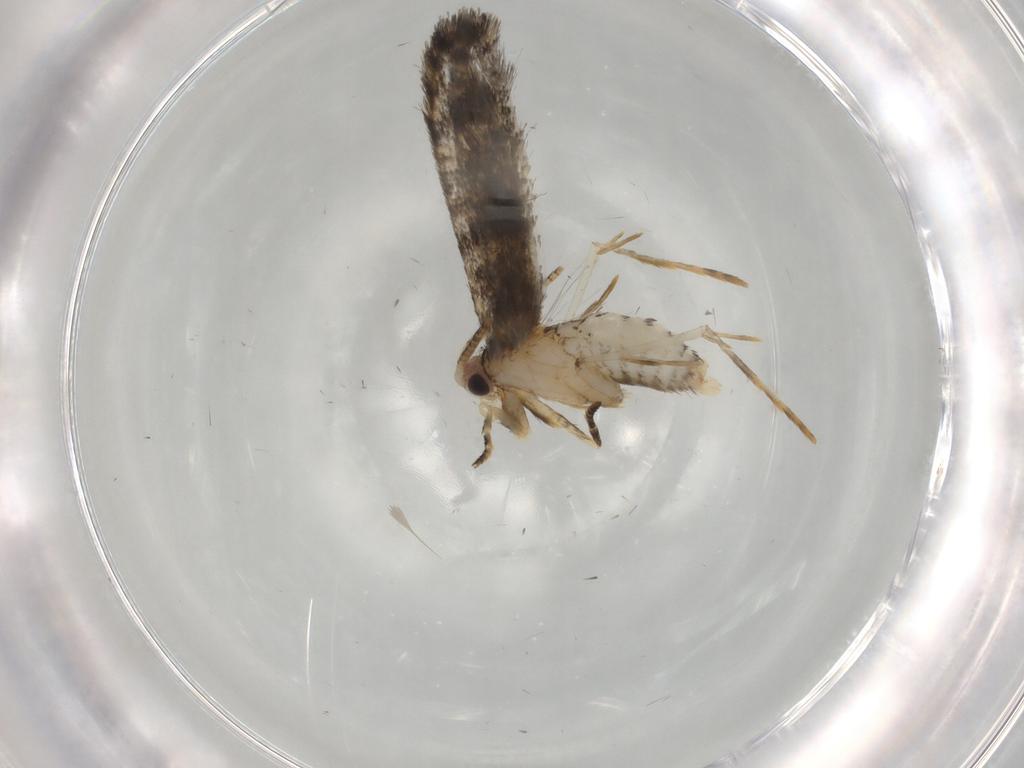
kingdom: Animalia
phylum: Arthropoda
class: Insecta
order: Lepidoptera
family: Tineidae
